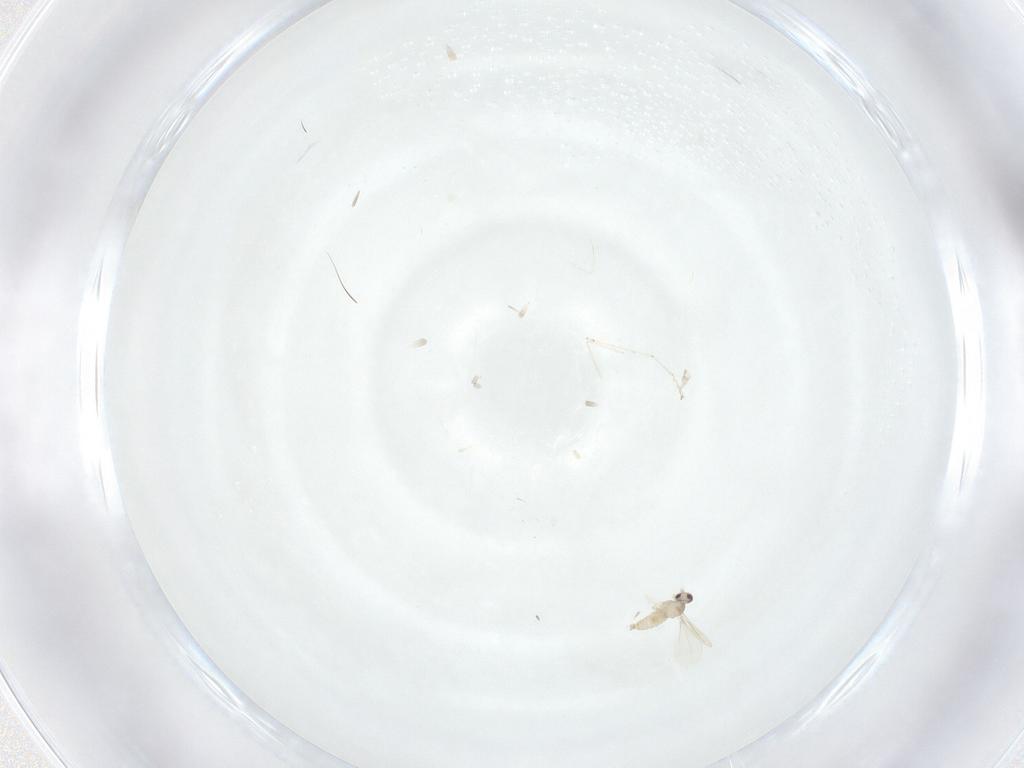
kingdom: Animalia
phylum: Arthropoda
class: Insecta
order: Diptera
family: Cecidomyiidae
